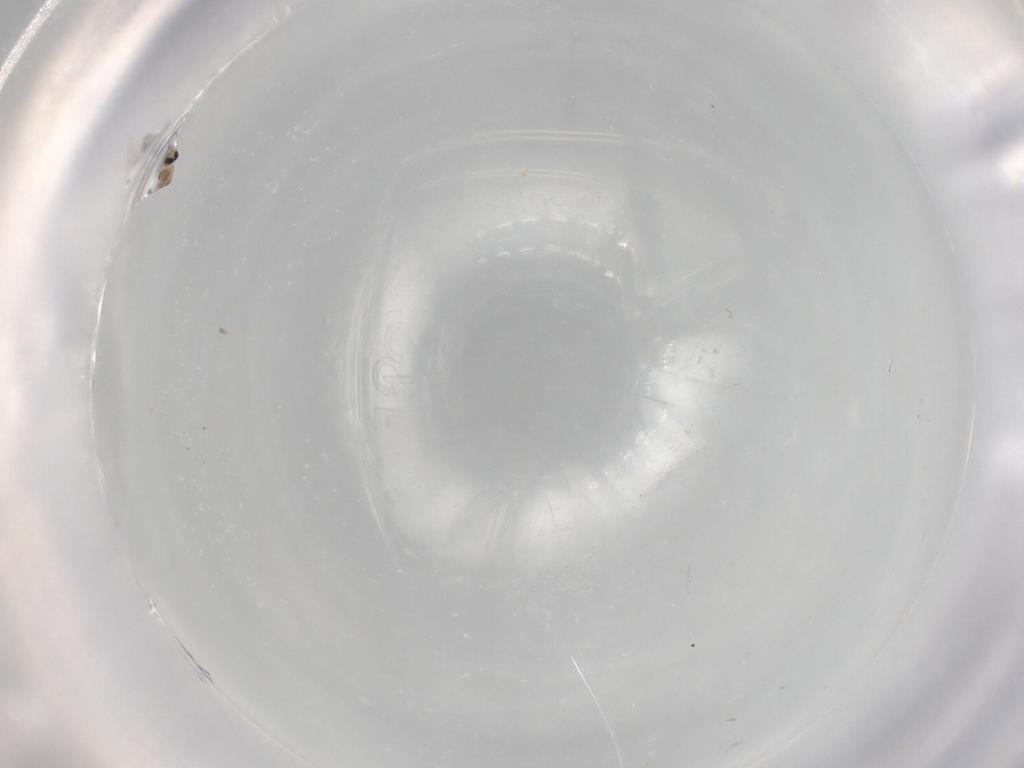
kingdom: Animalia
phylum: Arthropoda
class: Insecta
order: Diptera
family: Cecidomyiidae
